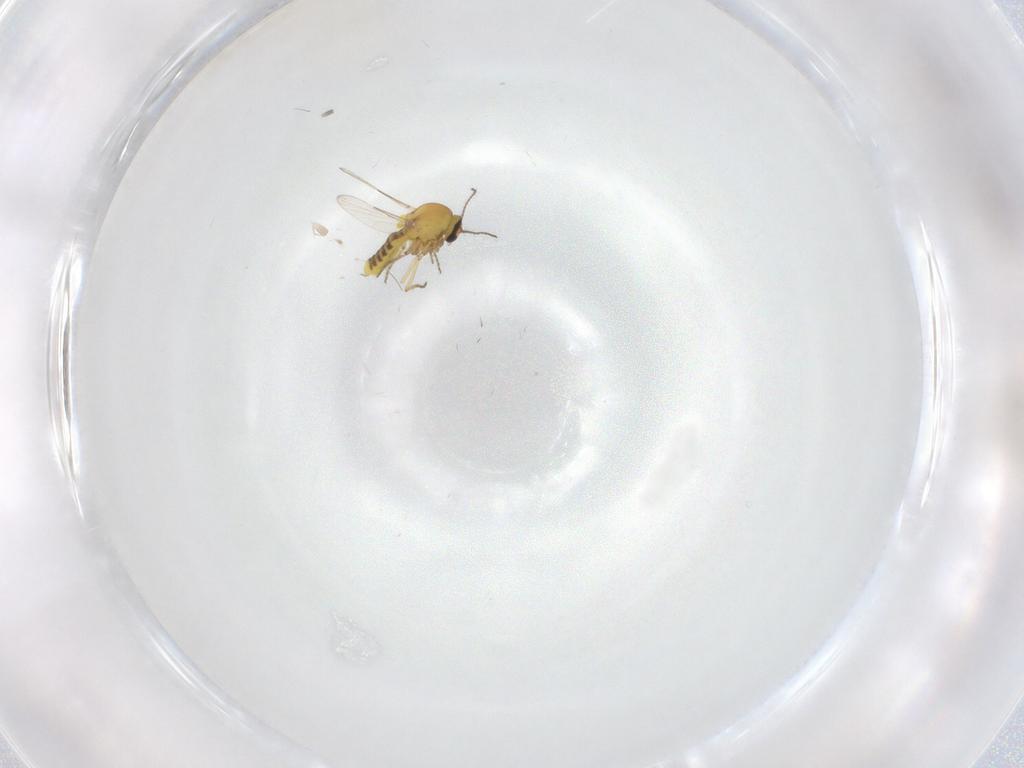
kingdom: Animalia
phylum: Arthropoda
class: Insecta
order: Diptera
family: Ceratopogonidae
